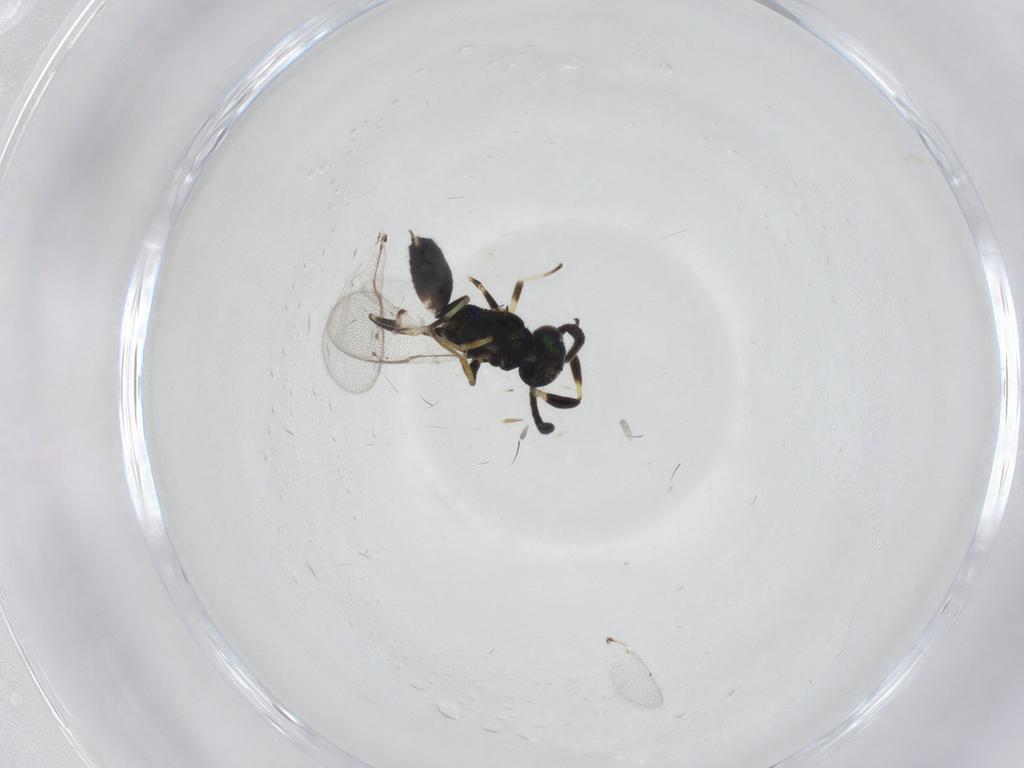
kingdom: Animalia
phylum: Arthropoda
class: Insecta
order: Hymenoptera
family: Eupelmidae
